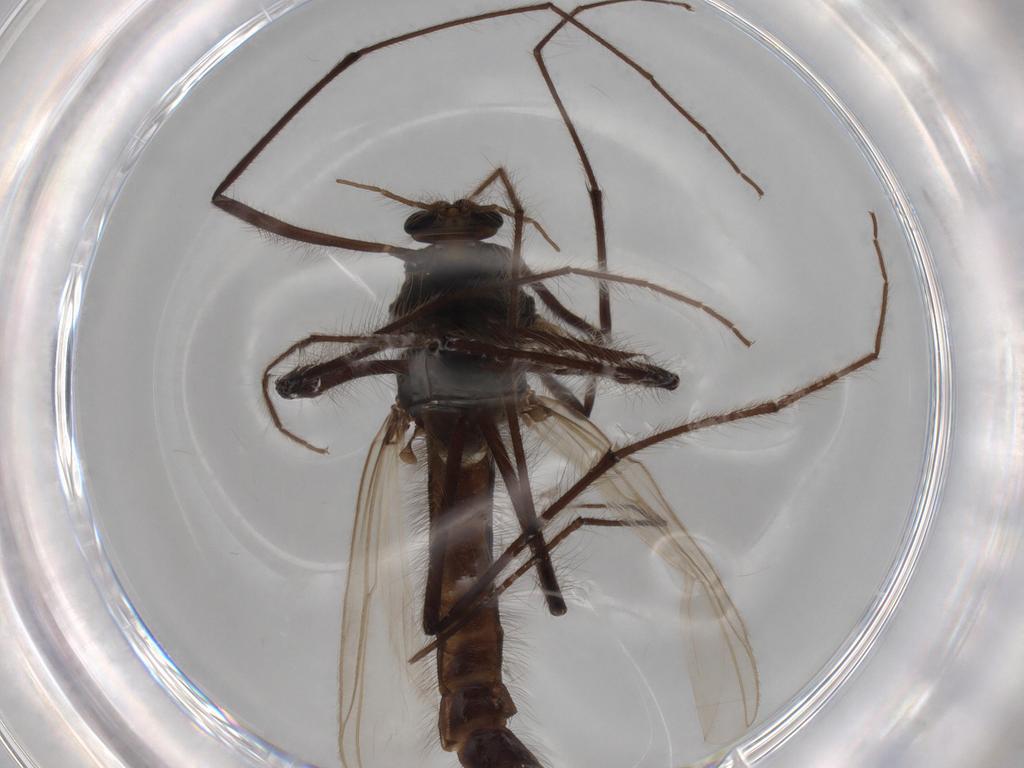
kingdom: Animalia
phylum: Arthropoda
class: Insecta
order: Diptera
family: Chironomidae
